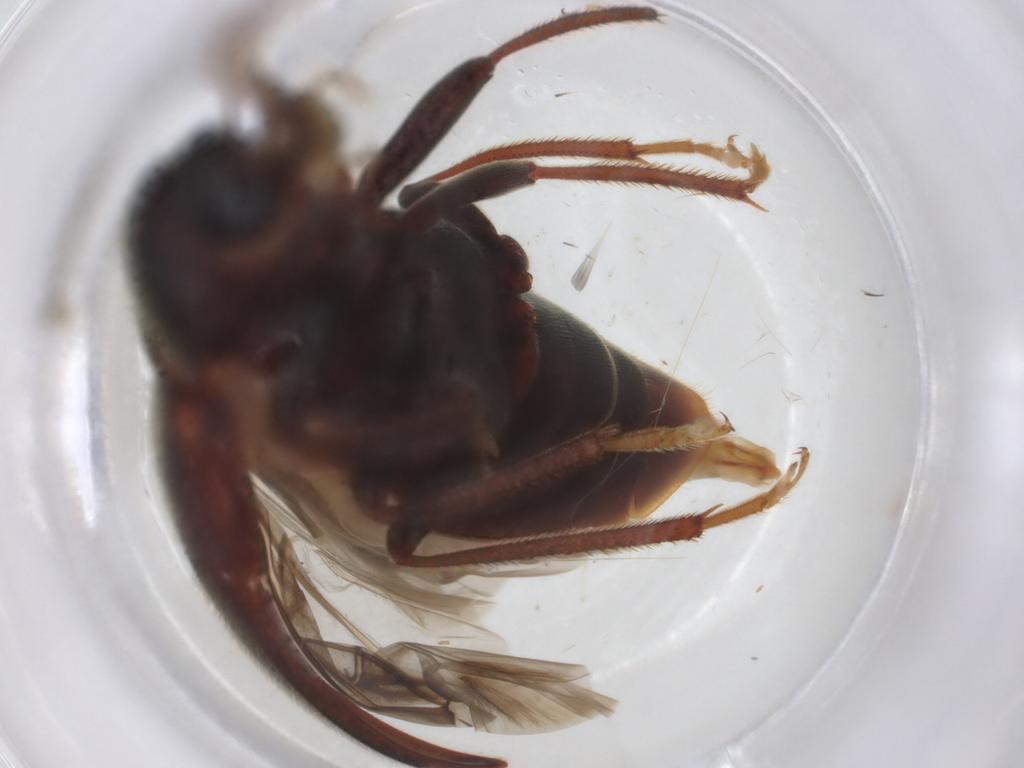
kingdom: Animalia
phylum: Arthropoda
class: Insecta
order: Coleoptera
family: Ptilodactylidae
